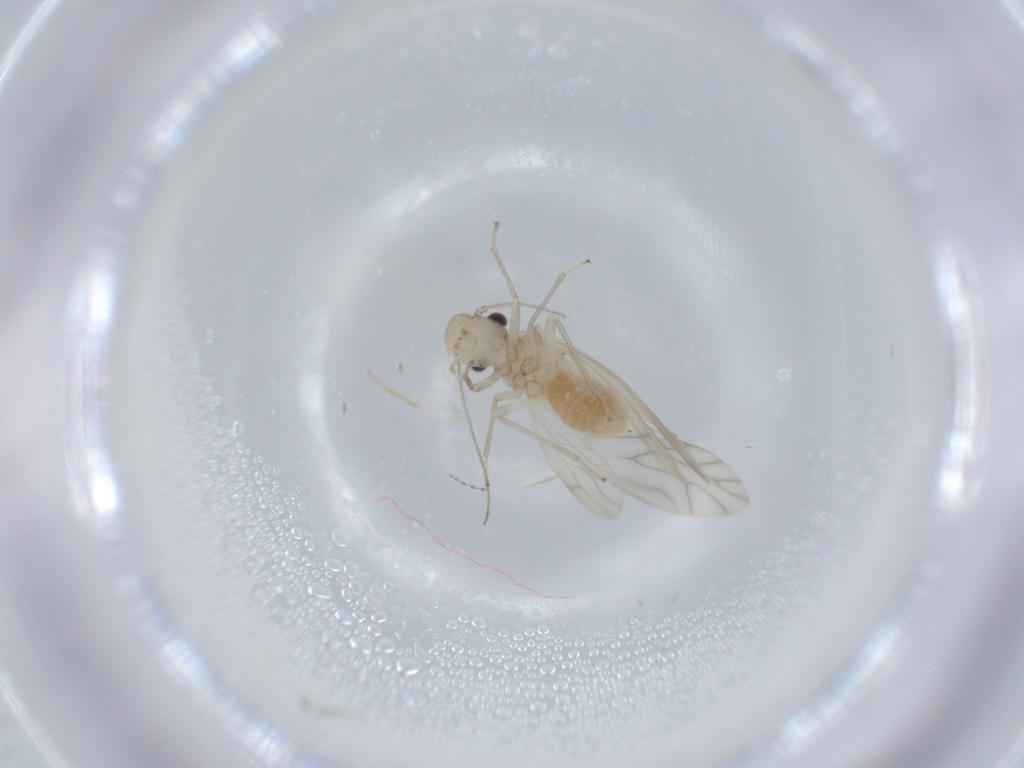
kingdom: Animalia
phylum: Arthropoda
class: Insecta
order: Psocodea
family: Caeciliusidae
